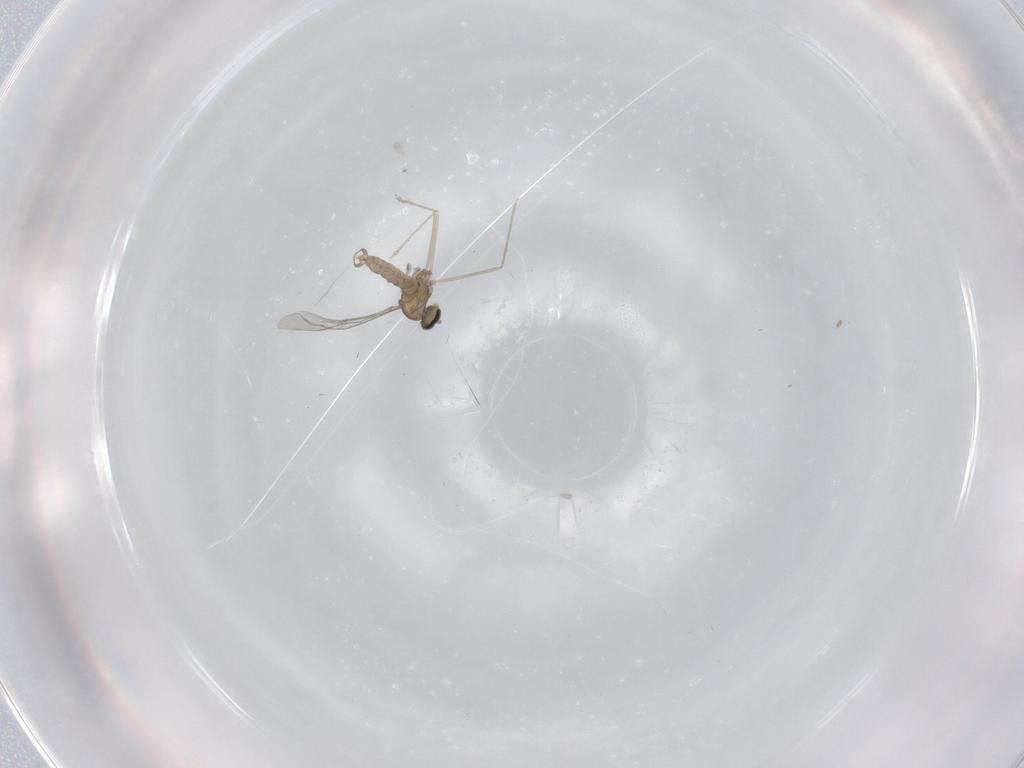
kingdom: Animalia
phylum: Arthropoda
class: Insecta
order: Diptera
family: Cecidomyiidae
